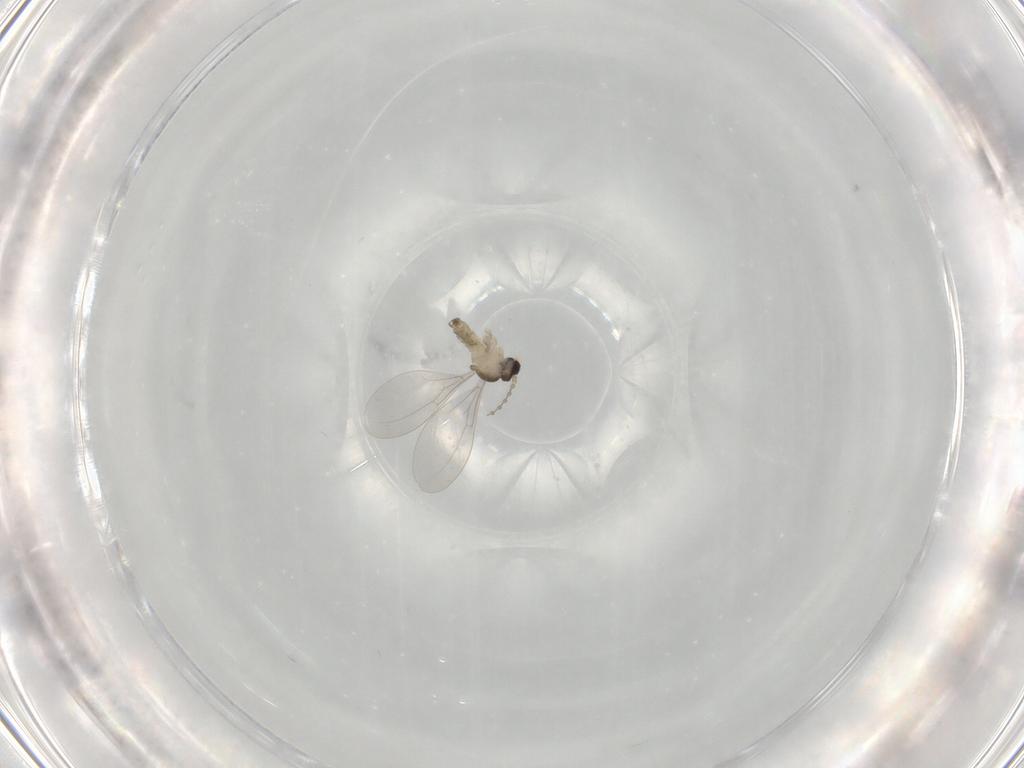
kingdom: Animalia
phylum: Arthropoda
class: Insecta
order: Diptera
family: Cecidomyiidae
